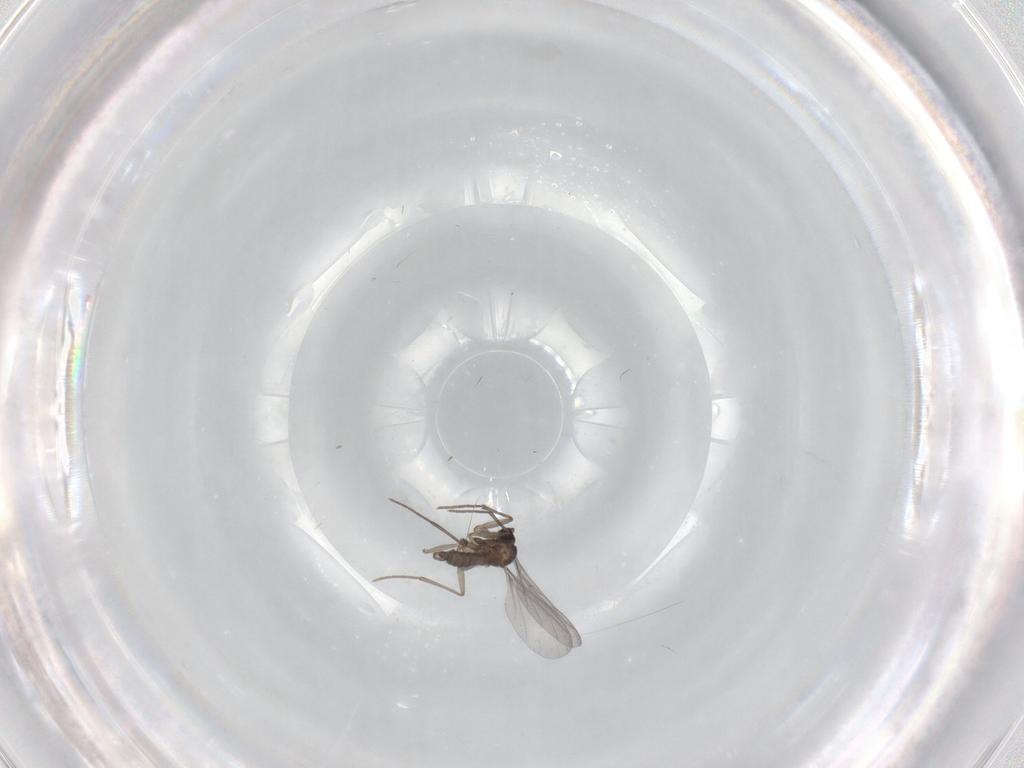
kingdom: Animalia
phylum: Arthropoda
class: Insecta
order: Diptera
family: Sciaridae
